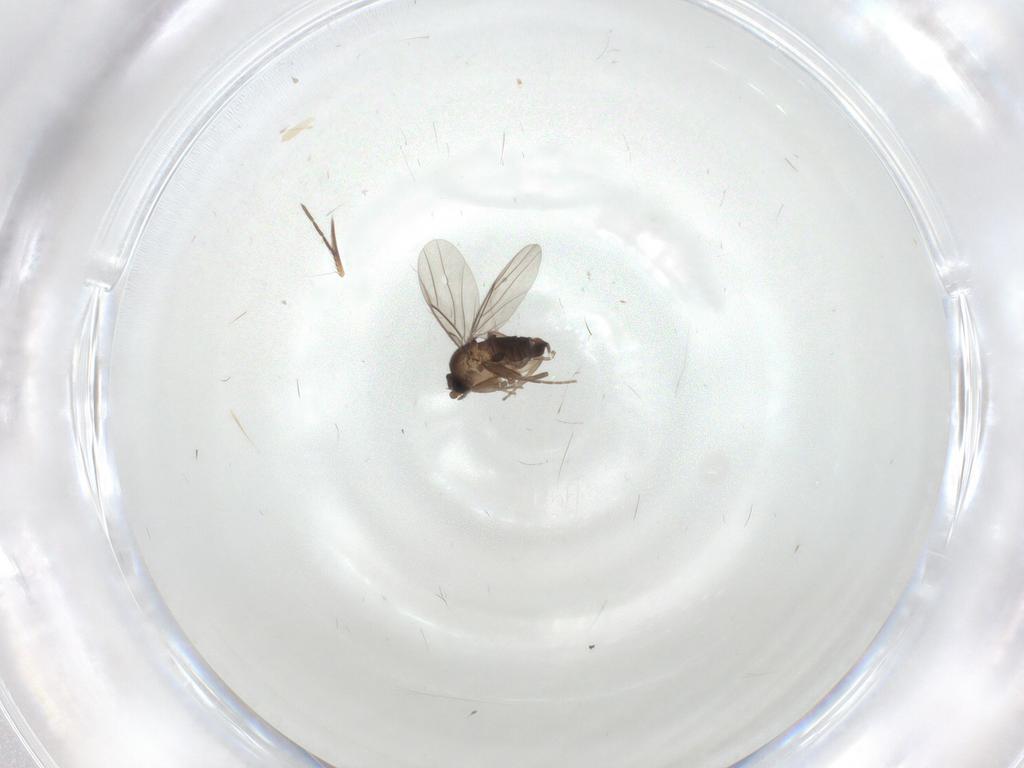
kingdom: Animalia
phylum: Arthropoda
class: Insecta
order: Diptera
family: Phoridae
